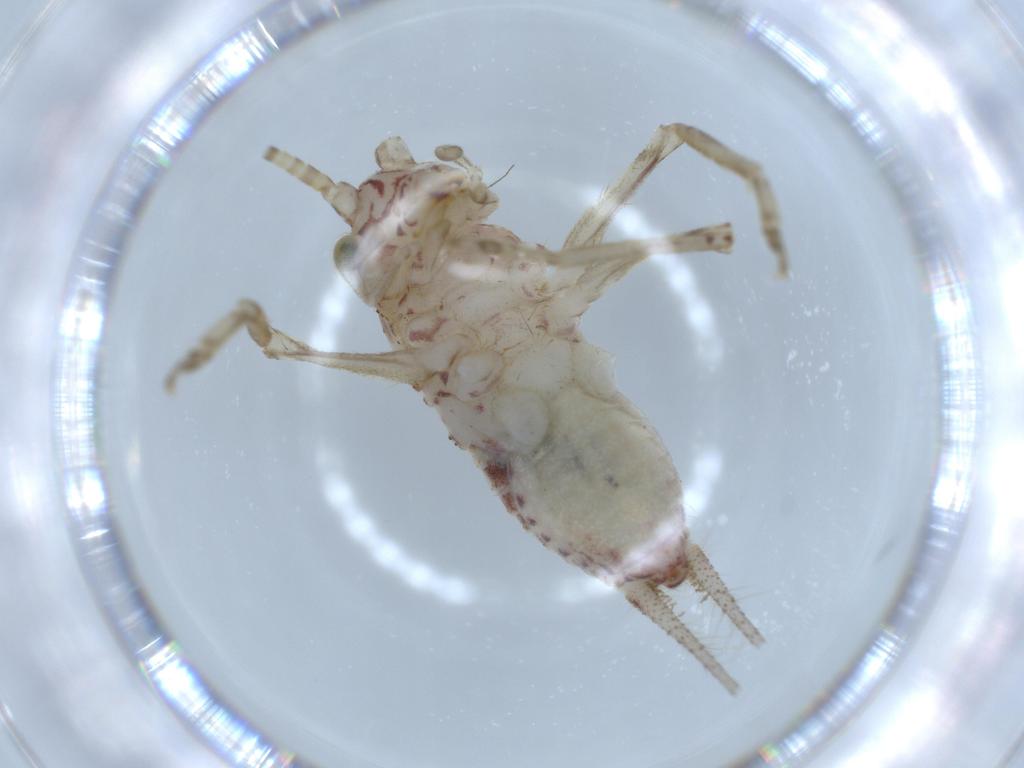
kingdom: Animalia
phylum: Arthropoda
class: Insecta
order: Orthoptera
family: Trigonidiidae
